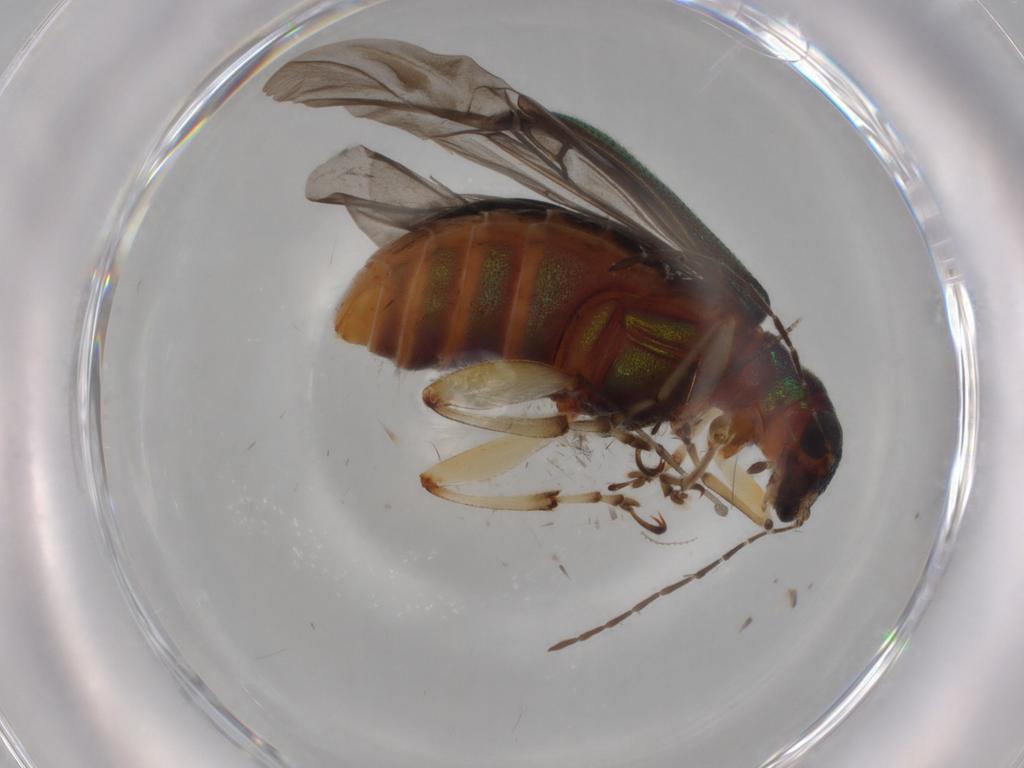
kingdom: Animalia
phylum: Arthropoda
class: Insecta
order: Coleoptera
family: Chrysomelidae
